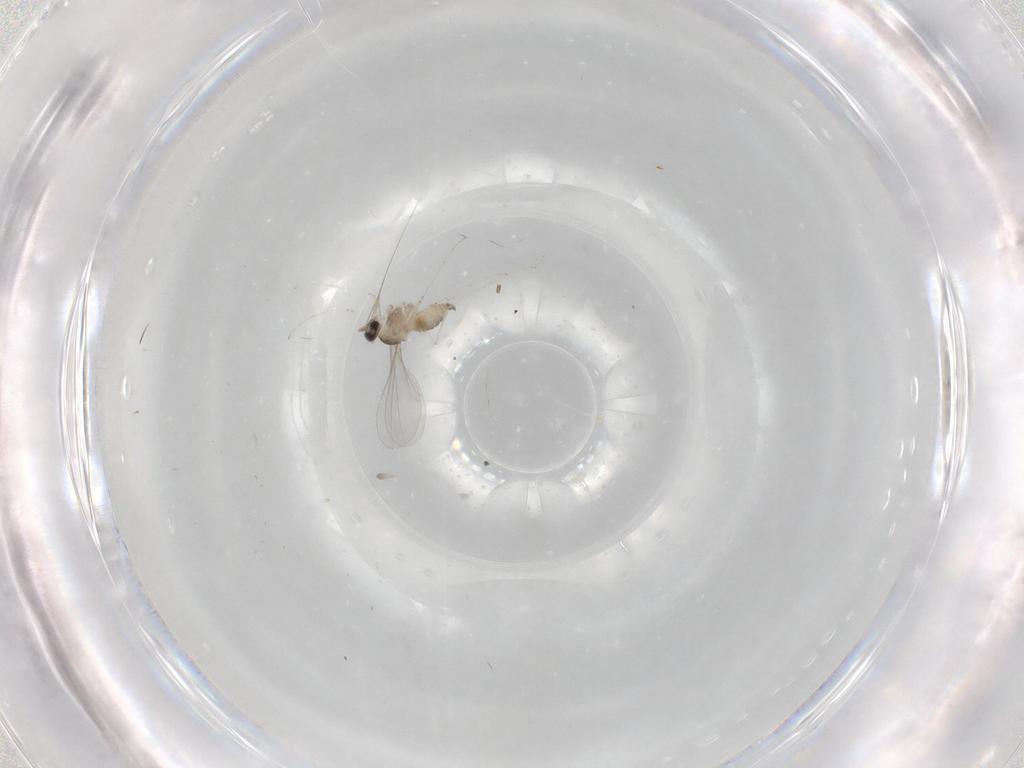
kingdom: Animalia
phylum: Arthropoda
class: Insecta
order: Diptera
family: Cecidomyiidae
